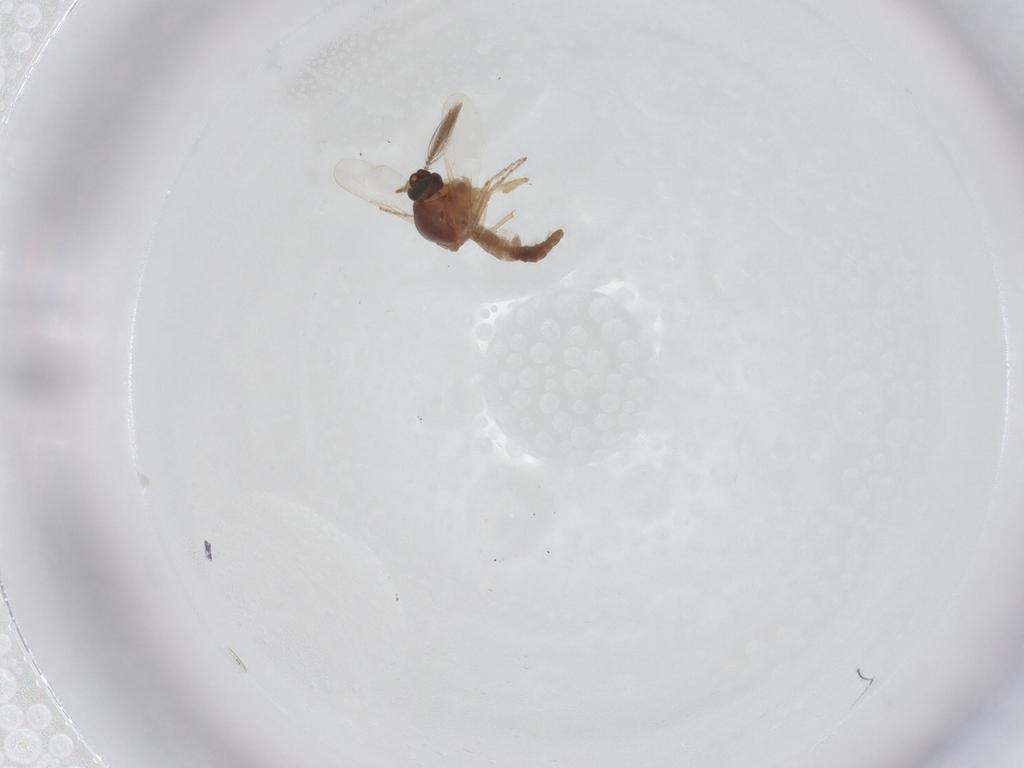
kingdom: Animalia
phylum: Arthropoda
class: Insecta
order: Diptera
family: Ceratopogonidae
